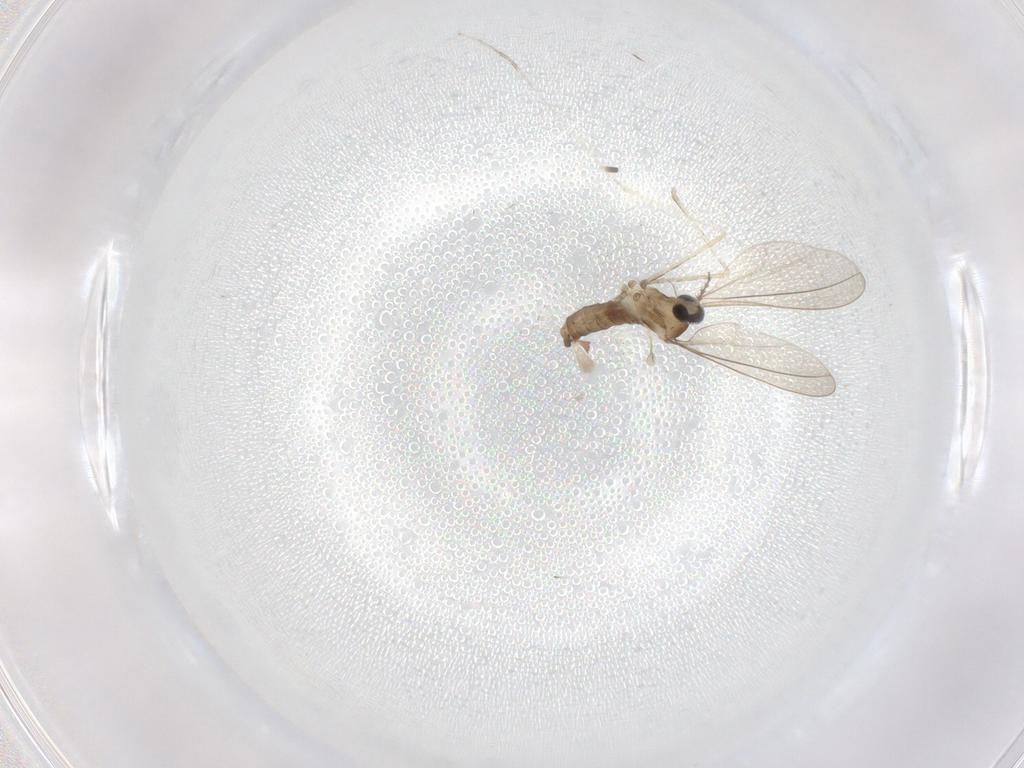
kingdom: Animalia
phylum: Arthropoda
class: Insecta
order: Diptera
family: Cecidomyiidae
